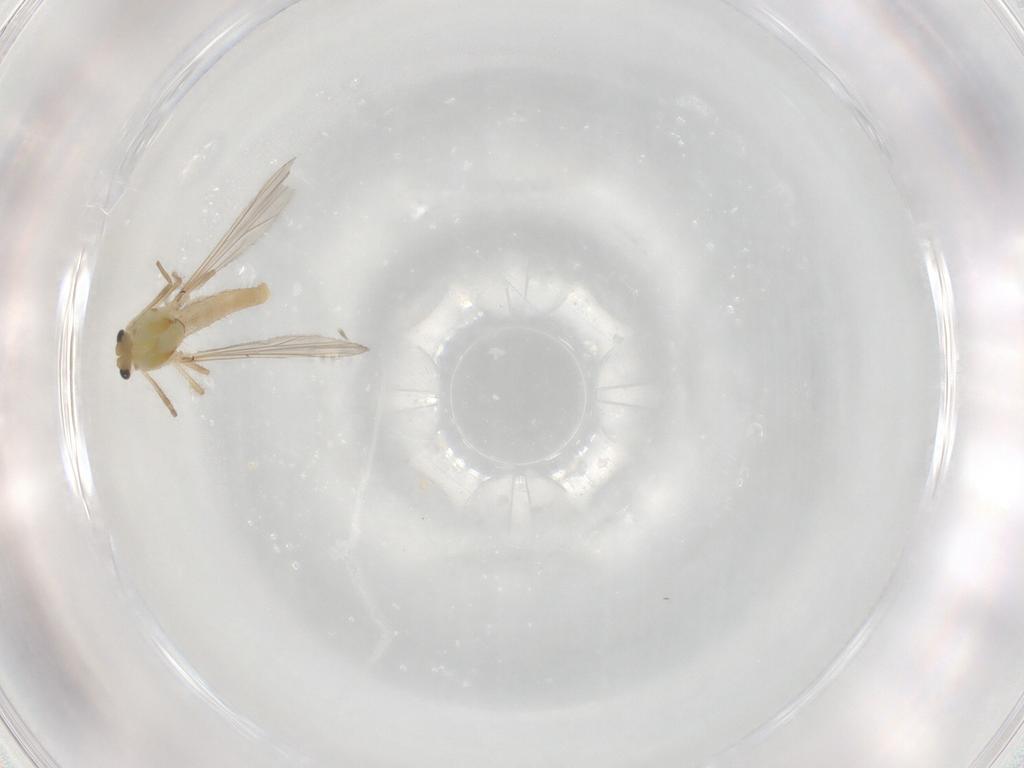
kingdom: Animalia
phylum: Arthropoda
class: Insecta
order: Diptera
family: Chironomidae
